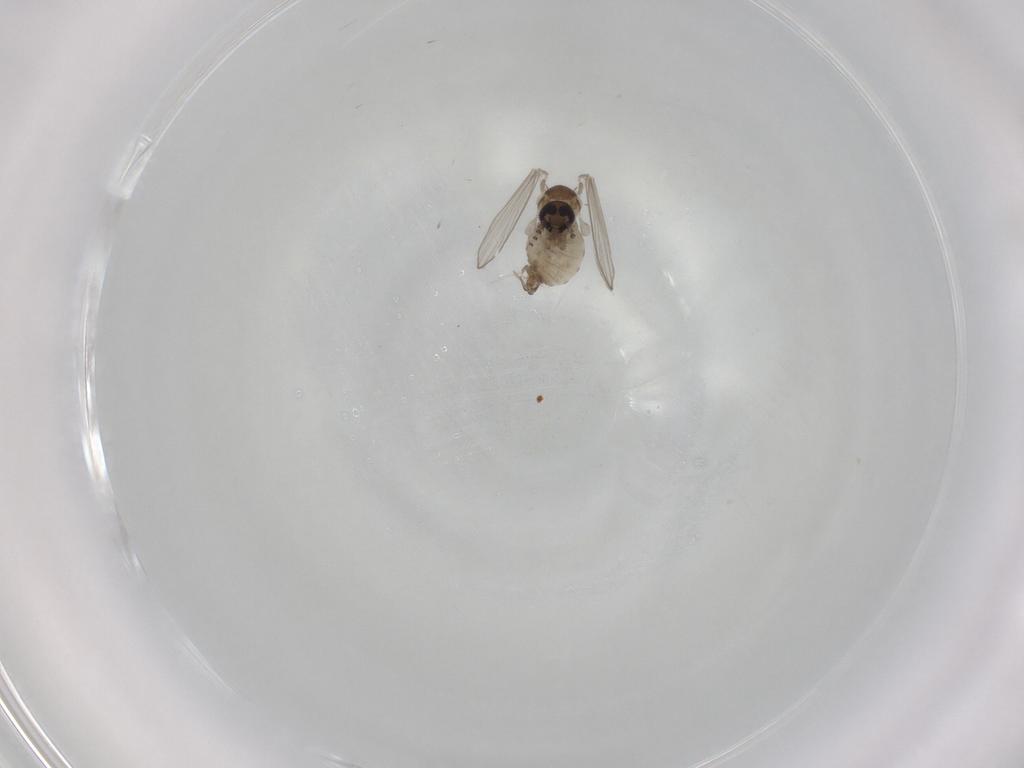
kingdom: Animalia
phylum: Arthropoda
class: Insecta
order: Diptera
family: Psychodidae
